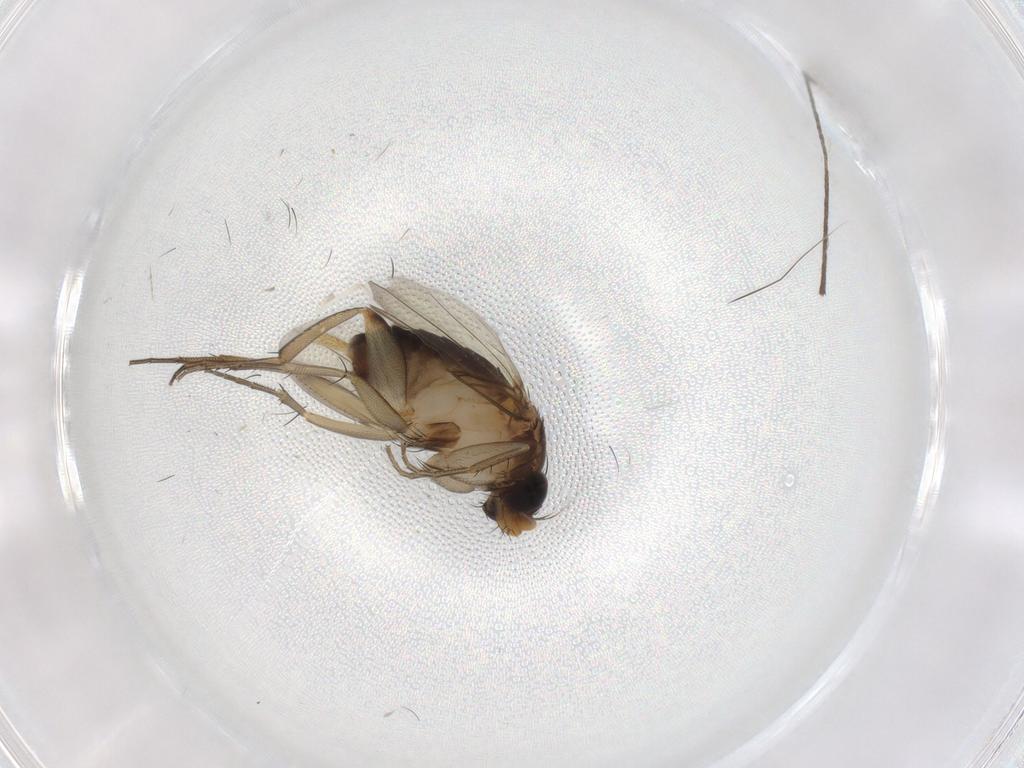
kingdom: Animalia
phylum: Arthropoda
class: Insecta
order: Diptera
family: Limoniidae
